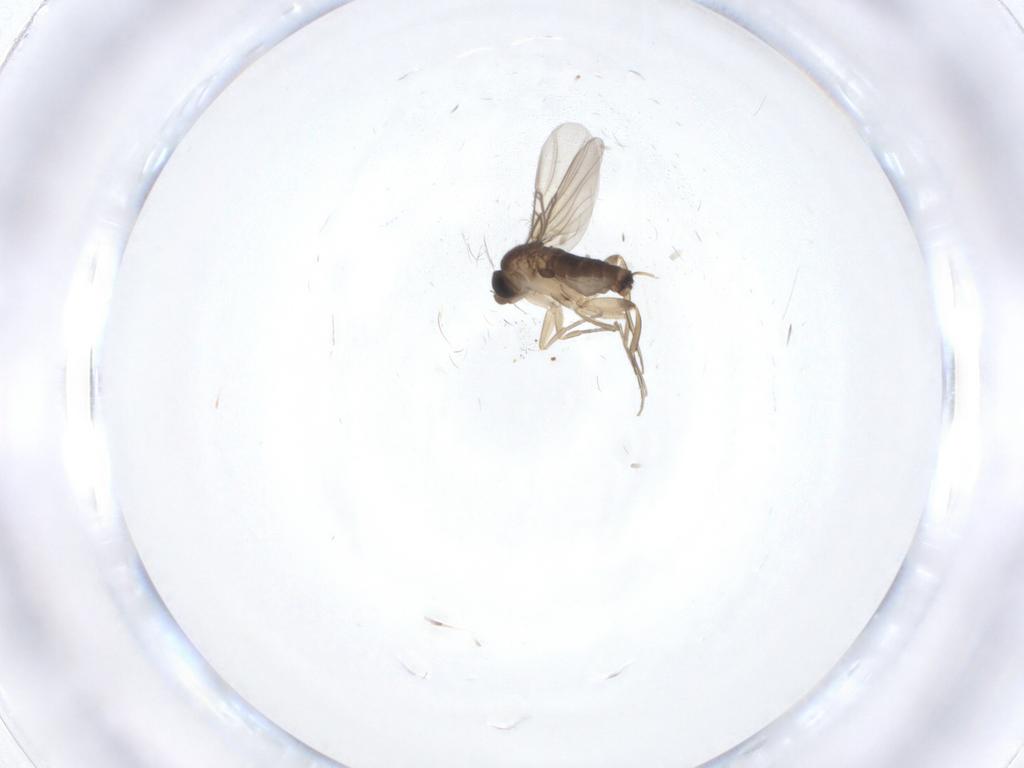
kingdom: Animalia
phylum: Arthropoda
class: Insecta
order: Diptera
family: Phoridae
